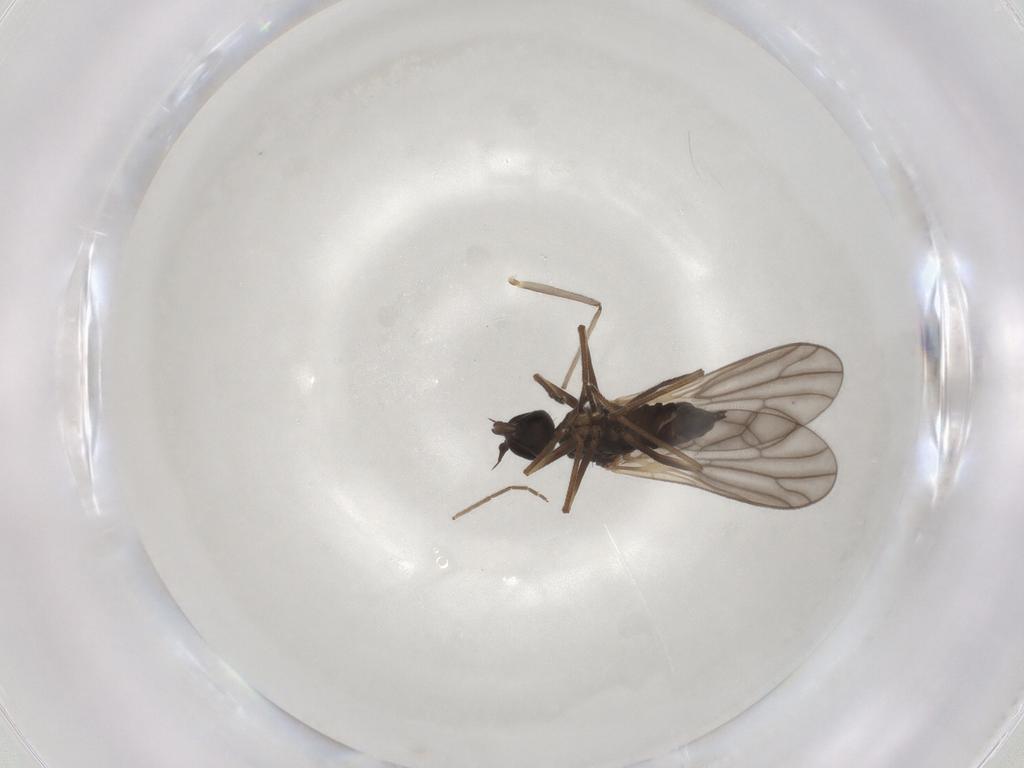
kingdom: Animalia
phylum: Arthropoda
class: Insecta
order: Diptera
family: Empididae
